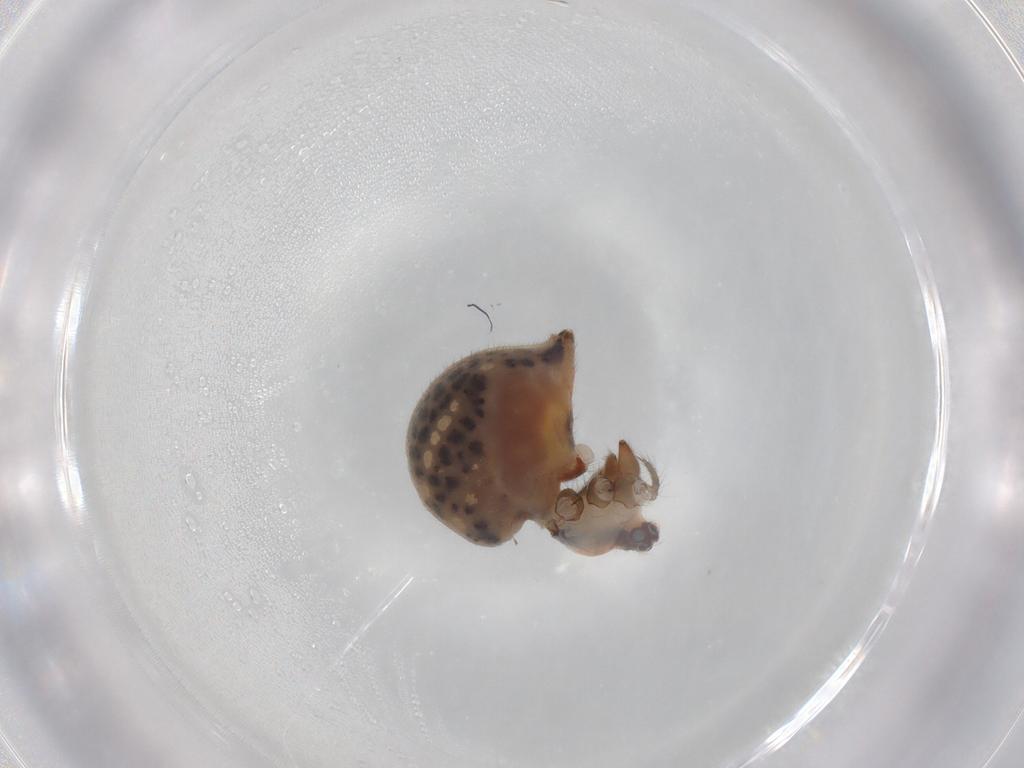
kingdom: Animalia
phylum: Arthropoda
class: Arachnida
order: Araneae
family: Pholcidae
